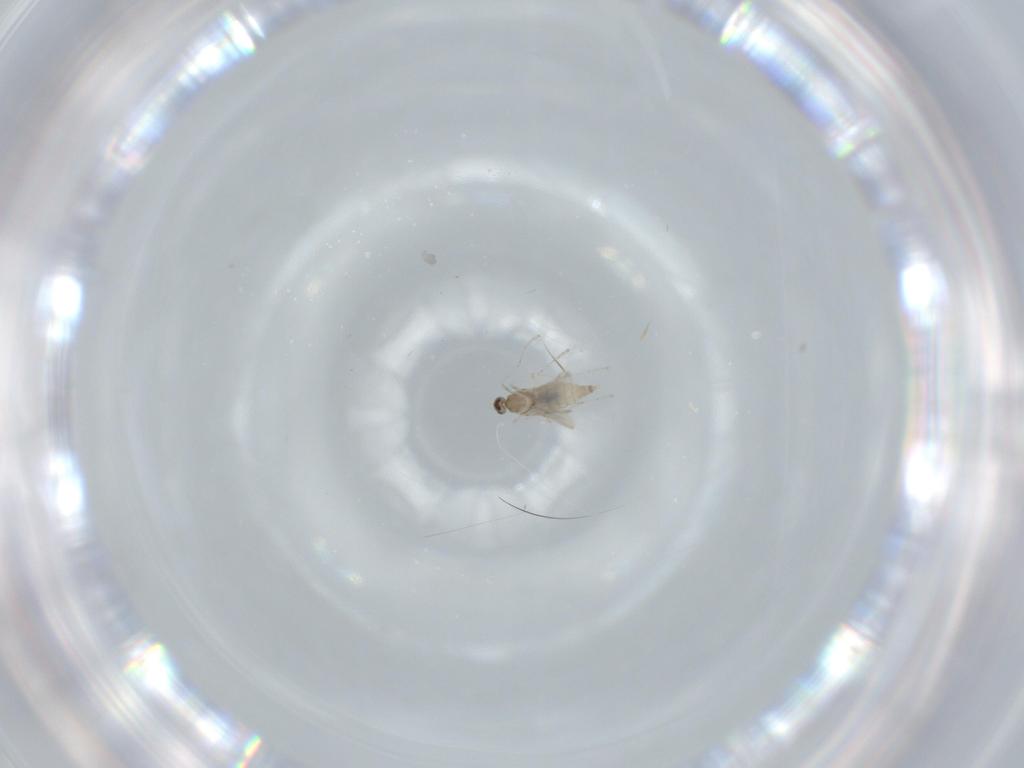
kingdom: Animalia
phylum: Arthropoda
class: Insecta
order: Diptera
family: Cecidomyiidae
